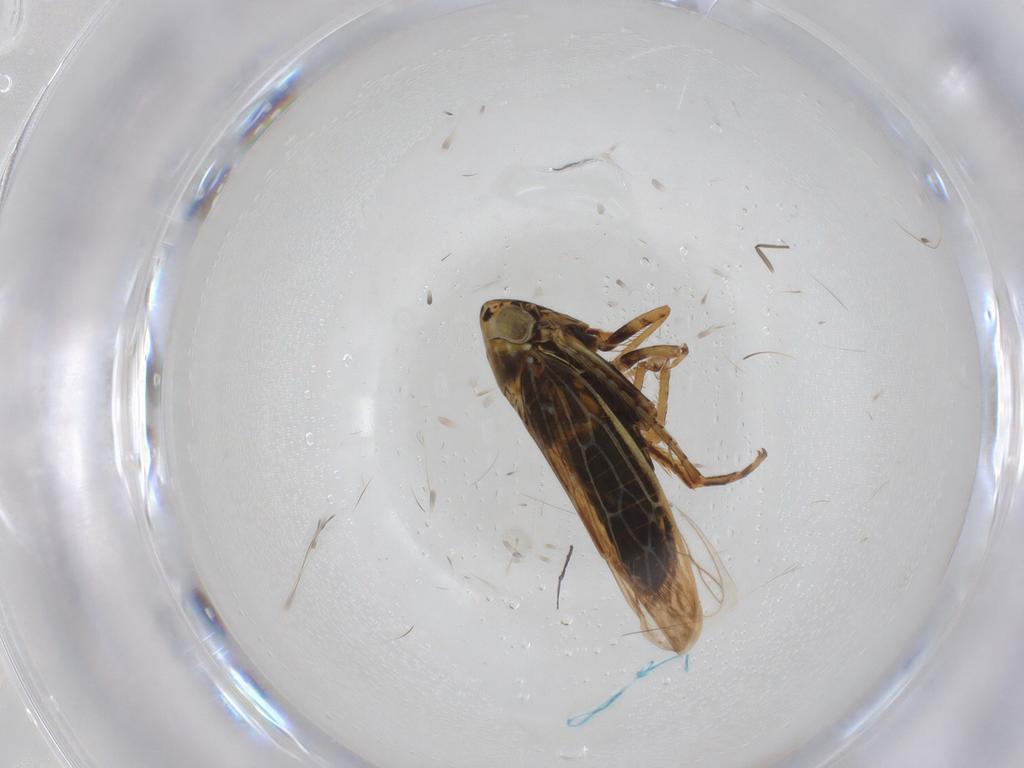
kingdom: Animalia
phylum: Arthropoda
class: Insecta
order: Hemiptera
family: Cicadellidae
